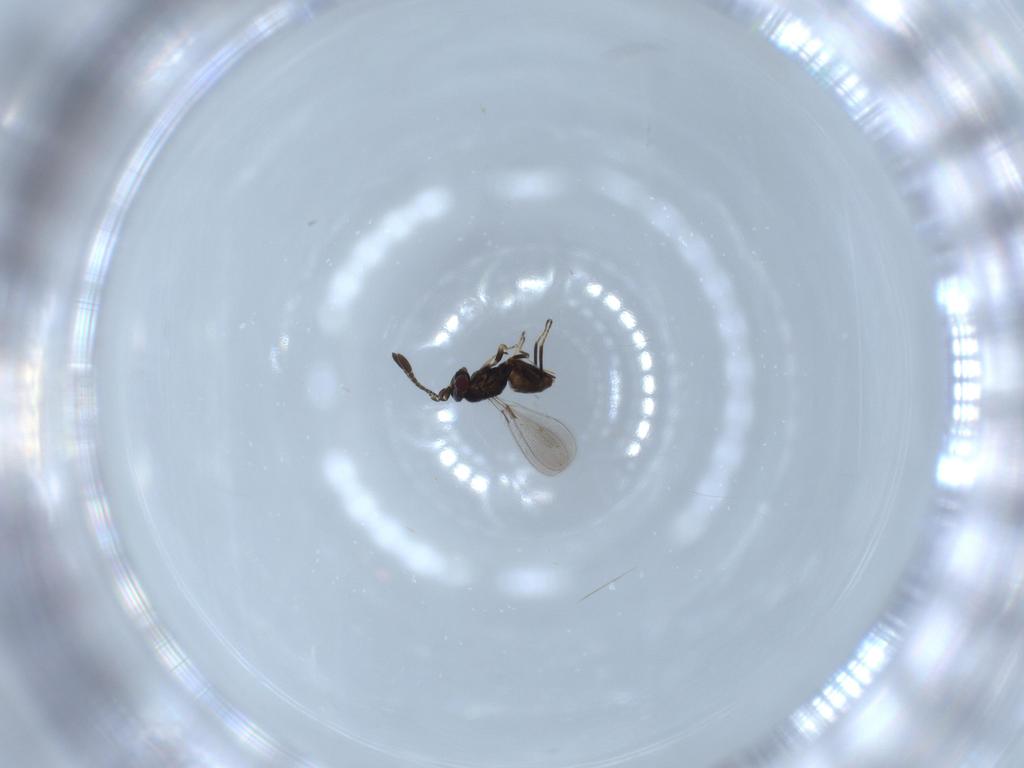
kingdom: Animalia
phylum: Arthropoda
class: Insecta
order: Hymenoptera
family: Mymaridae
